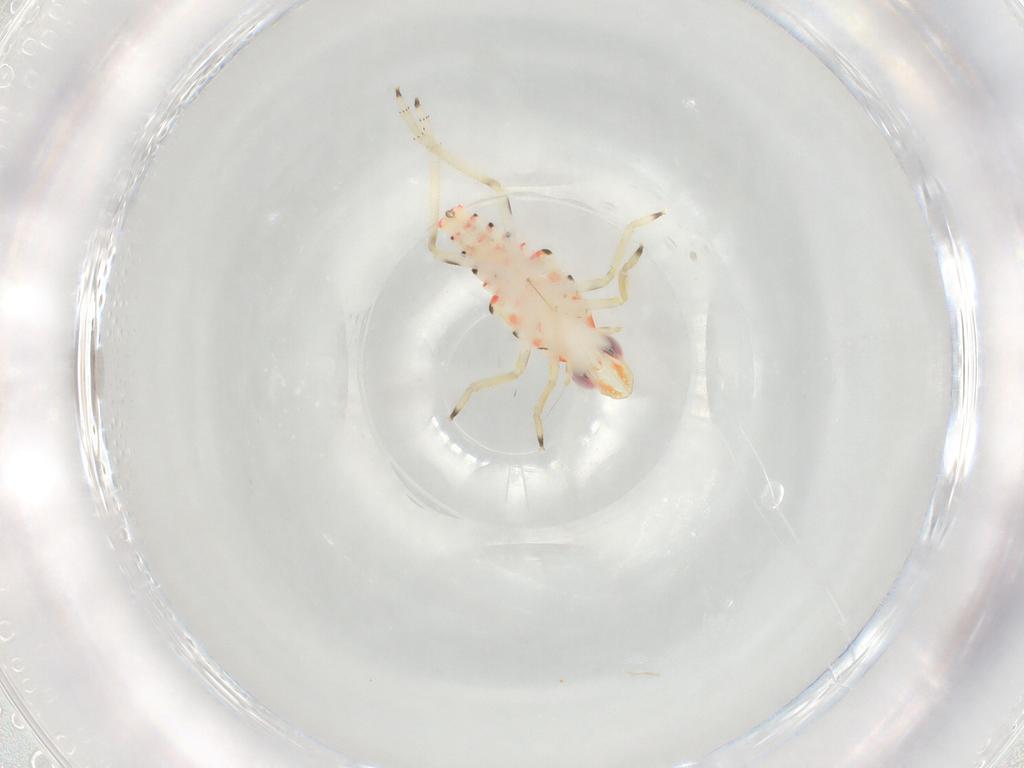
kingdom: Animalia
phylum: Arthropoda
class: Insecta
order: Hemiptera
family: Tropiduchidae
